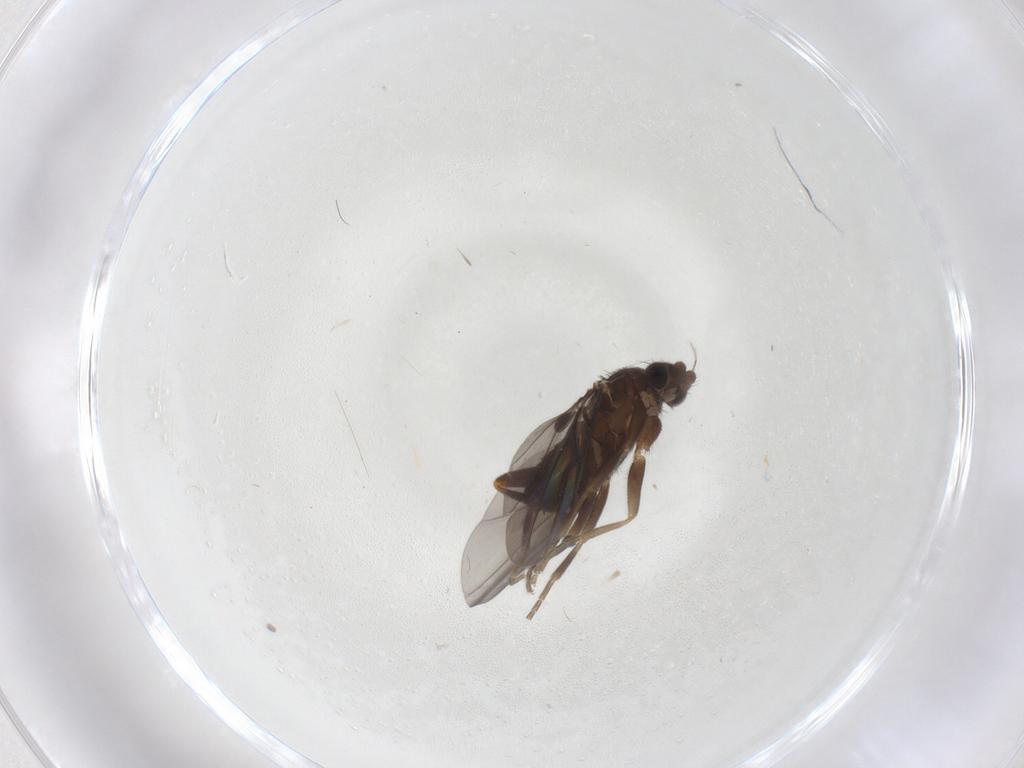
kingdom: Animalia
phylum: Arthropoda
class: Insecta
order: Diptera
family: Phoridae
